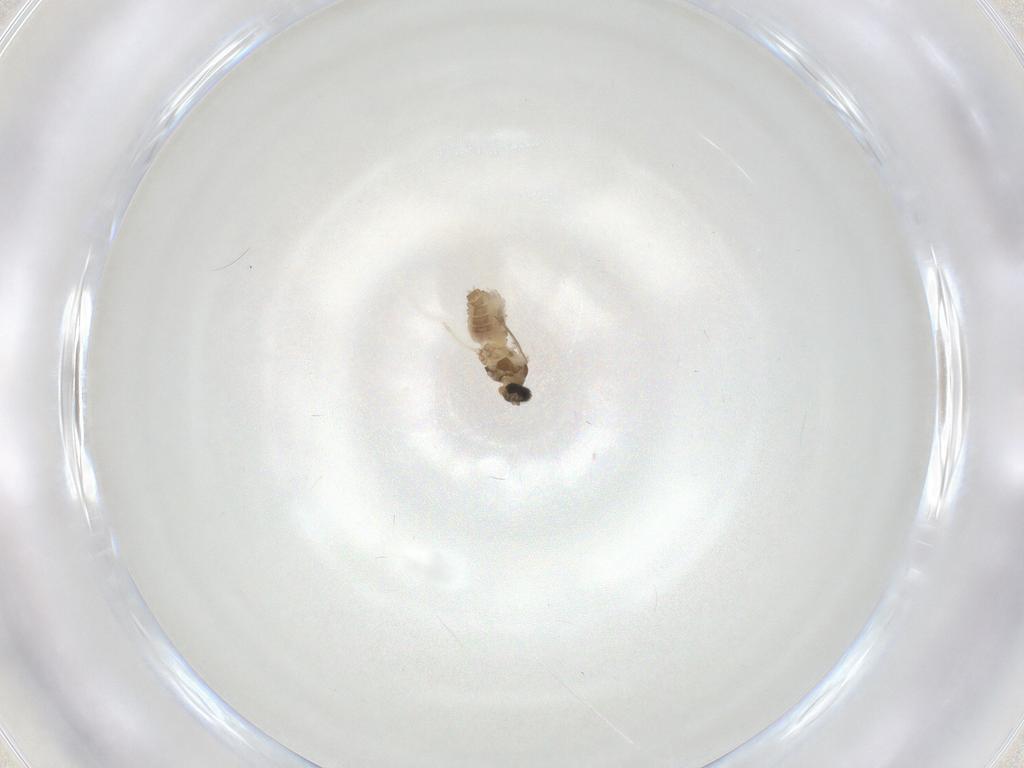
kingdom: Animalia
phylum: Arthropoda
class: Insecta
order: Diptera
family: Cecidomyiidae
